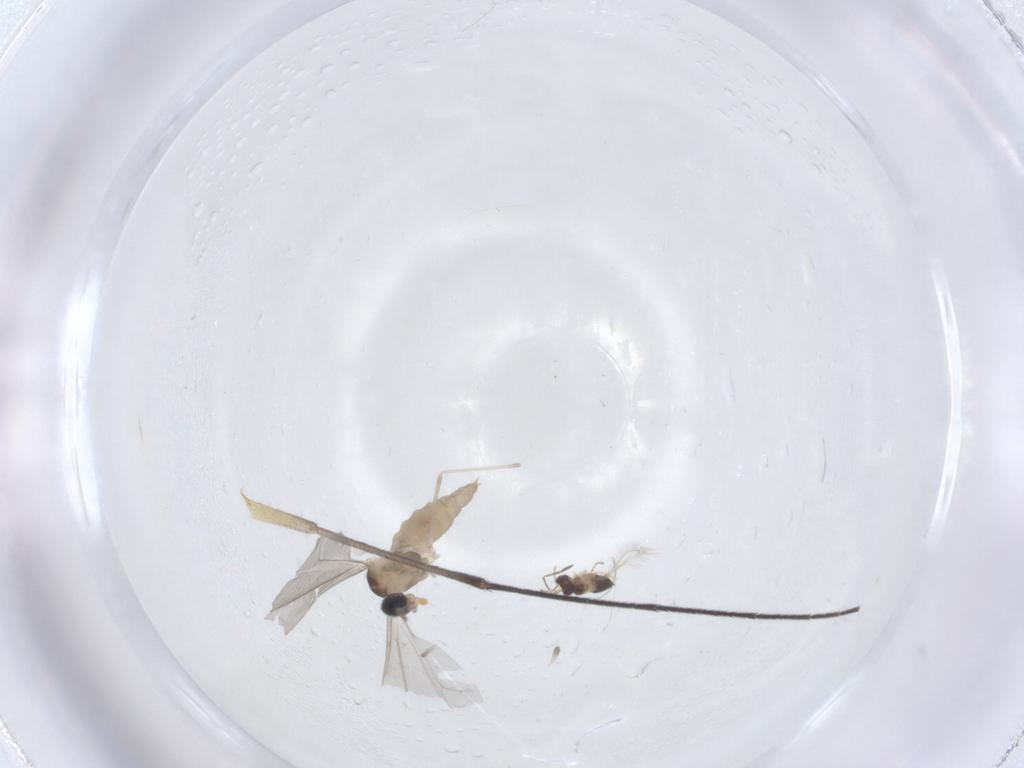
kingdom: Animalia
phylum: Arthropoda
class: Insecta
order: Diptera
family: Cecidomyiidae
